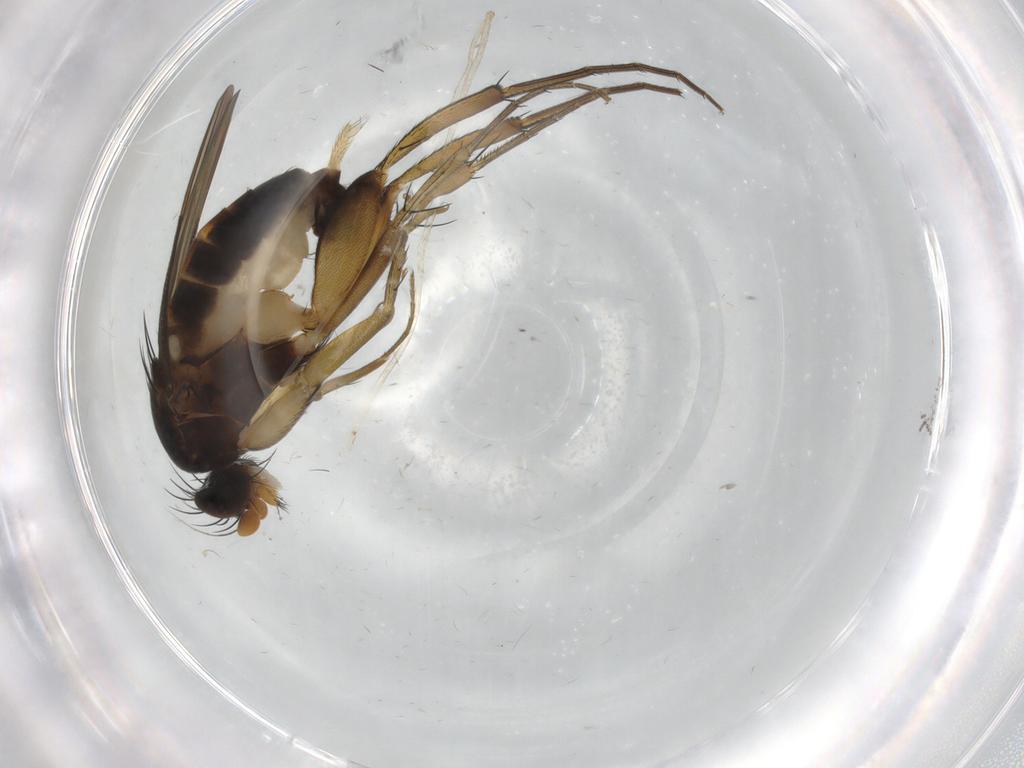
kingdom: Animalia
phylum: Arthropoda
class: Insecta
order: Diptera
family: Phoridae
